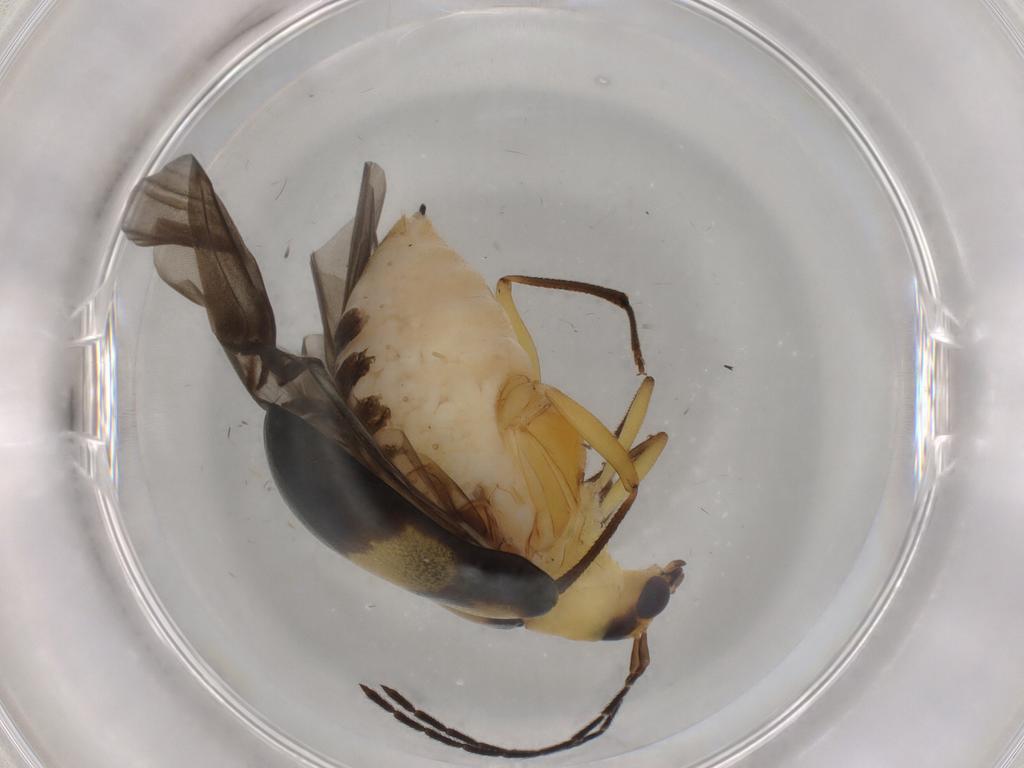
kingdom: Animalia
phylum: Arthropoda
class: Insecta
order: Coleoptera
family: Chrysomelidae
